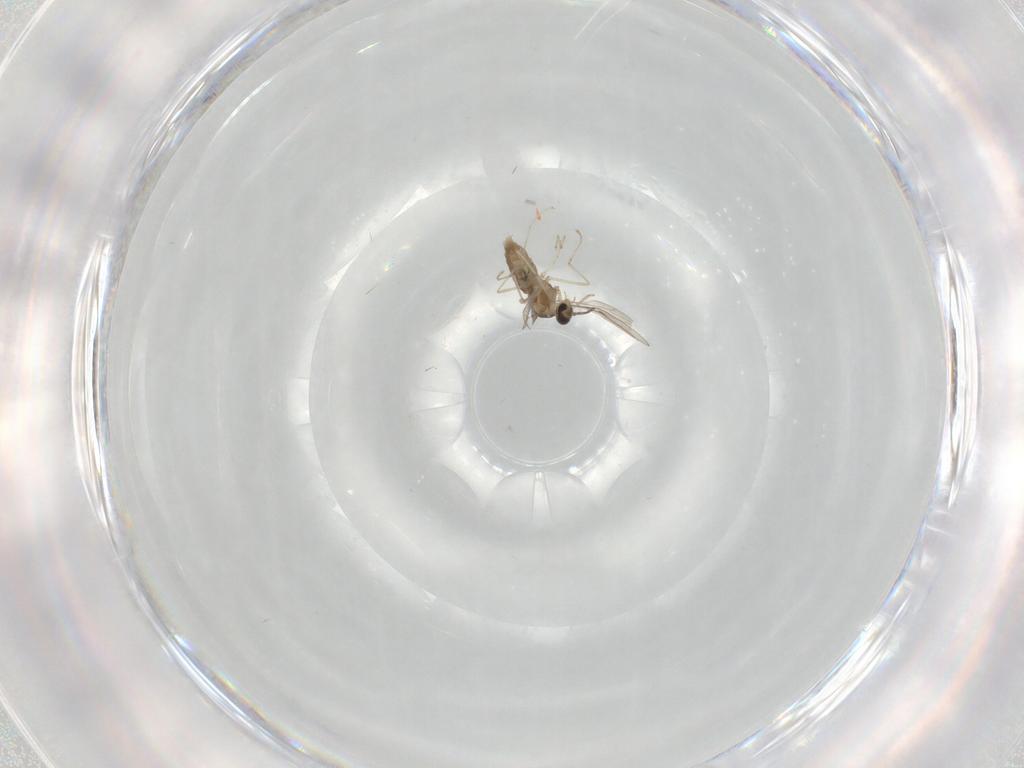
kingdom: Animalia
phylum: Arthropoda
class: Insecta
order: Diptera
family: Dolichopodidae
